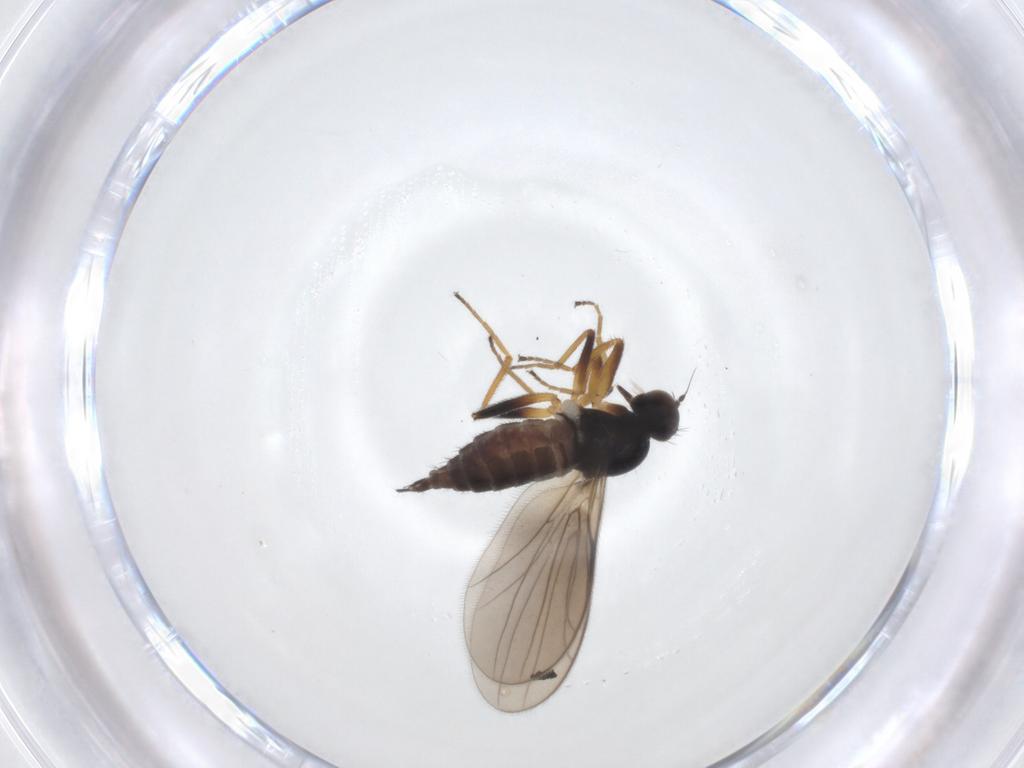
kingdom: Animalia
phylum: Arthropoda
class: Insecta
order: Diptera
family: Hybotidae
